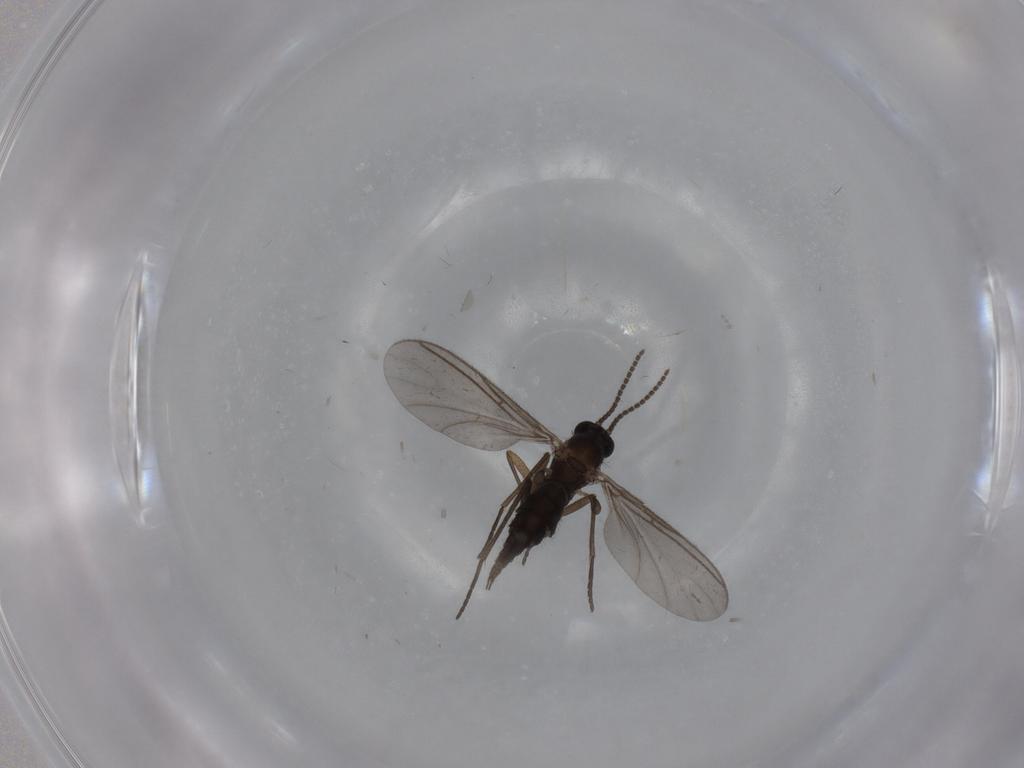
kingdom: Animalia
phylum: Arthropoda
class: Insecta
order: Diptera
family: Sciaridae
